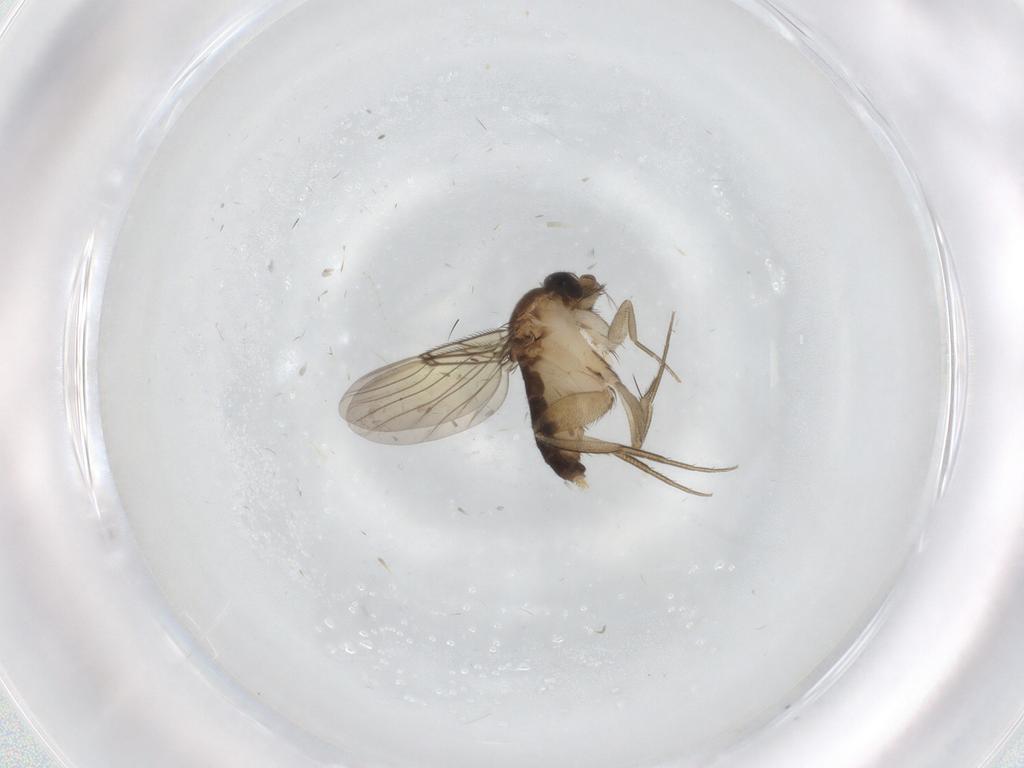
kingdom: Animalia
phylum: Arthropoda
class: Insecta
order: Diptera
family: Phoridae
